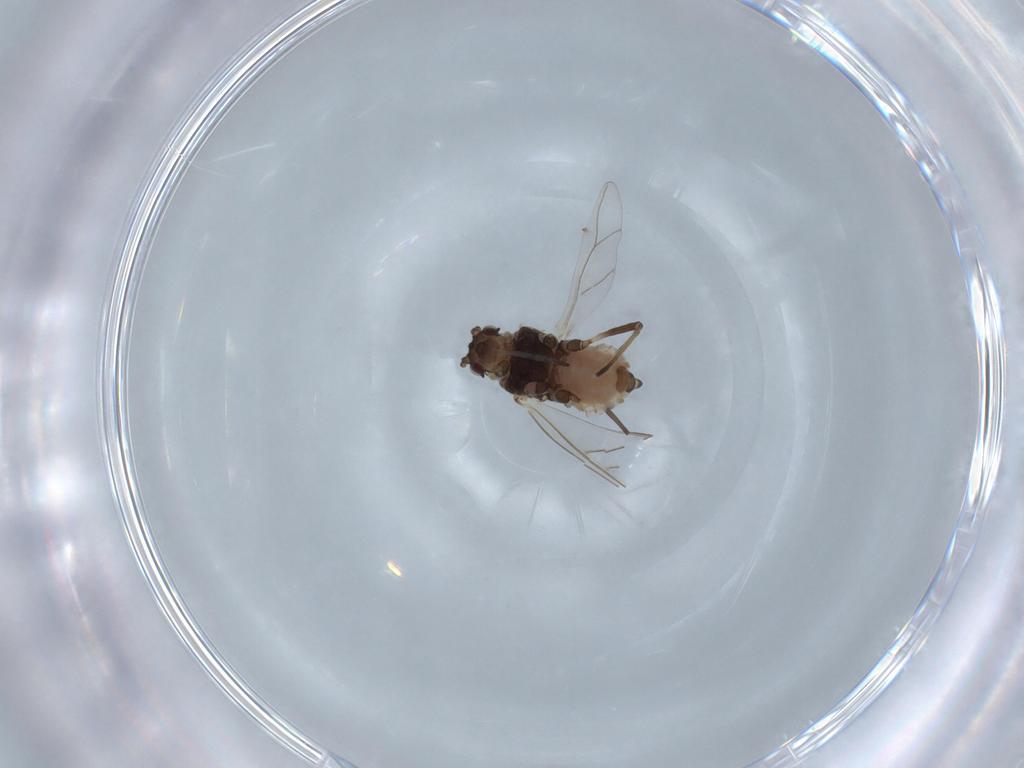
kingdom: Animalia
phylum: Arthropoda
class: Insecta
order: Hemiptera
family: Aphididae
